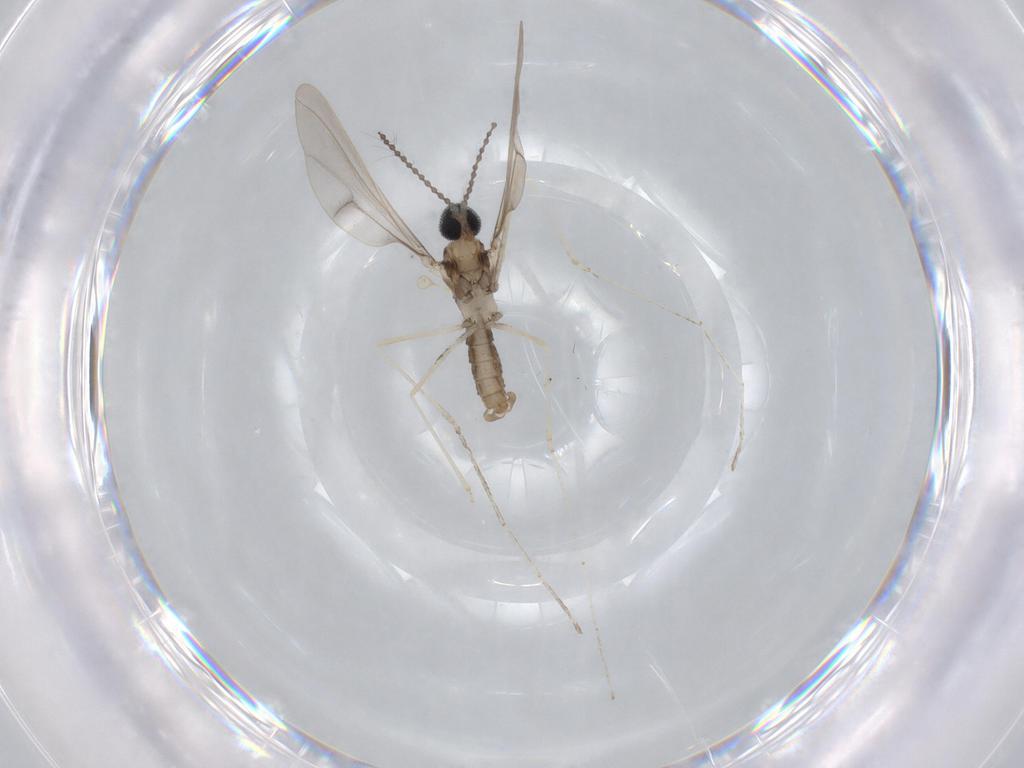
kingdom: Animalia
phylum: Arthropoda
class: Insecta
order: Diptera
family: Cecidomyiidae
